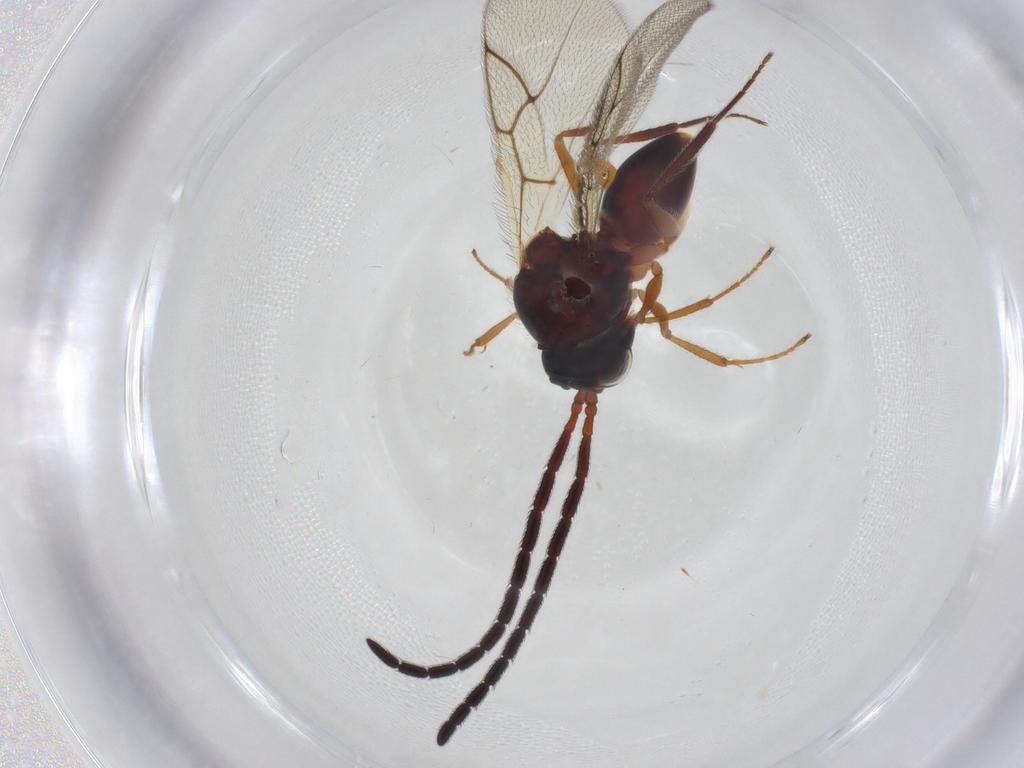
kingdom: Animalia
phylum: Arthropoda
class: Insecta
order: Hymenoptera
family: Figitidae
